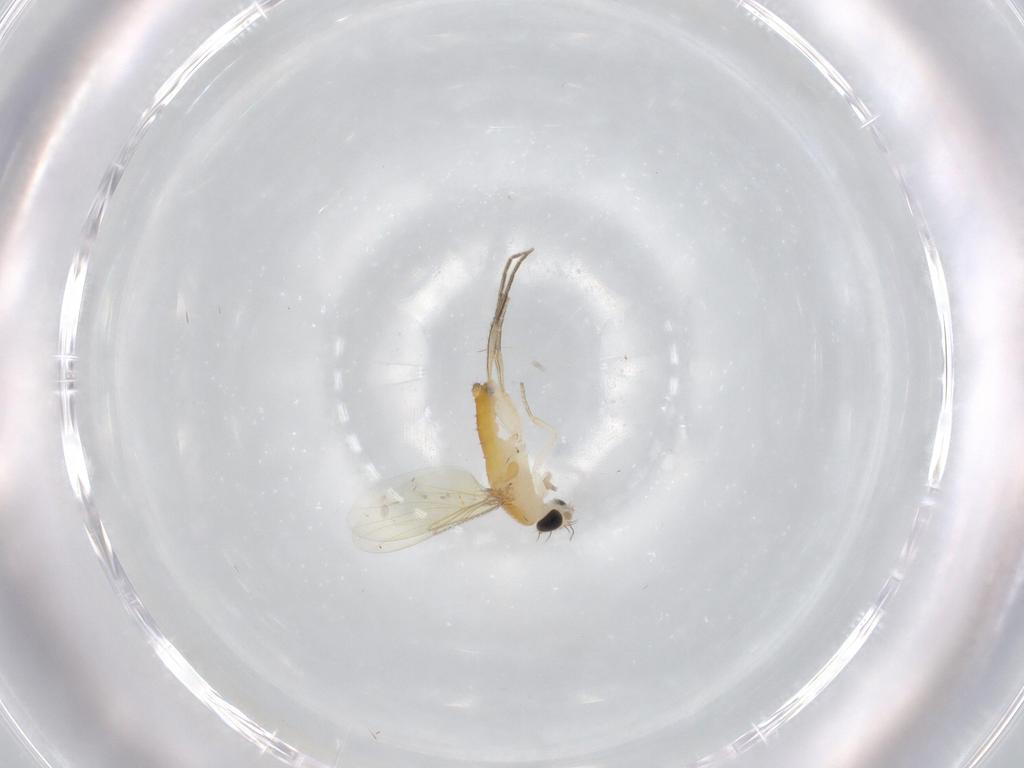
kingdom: Animalia
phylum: Arthropoda
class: Insecta
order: Diptera
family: Phoridae
